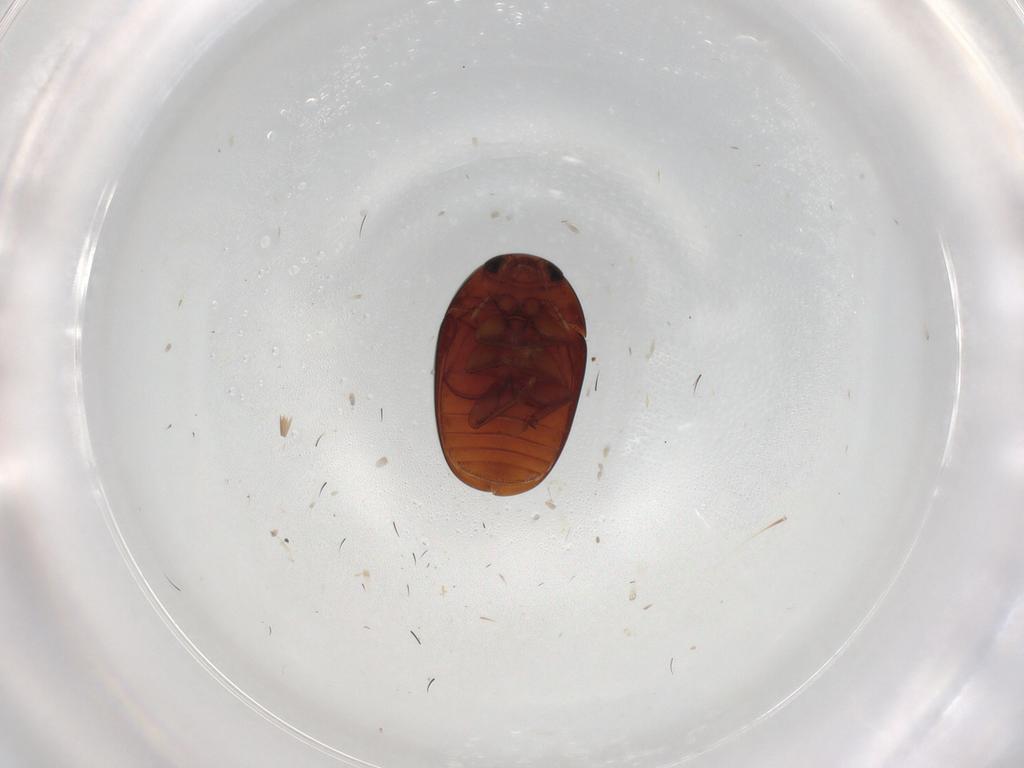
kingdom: Animalia
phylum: Arthropoda
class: Insecta
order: Coleoptera
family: Phalacridae
